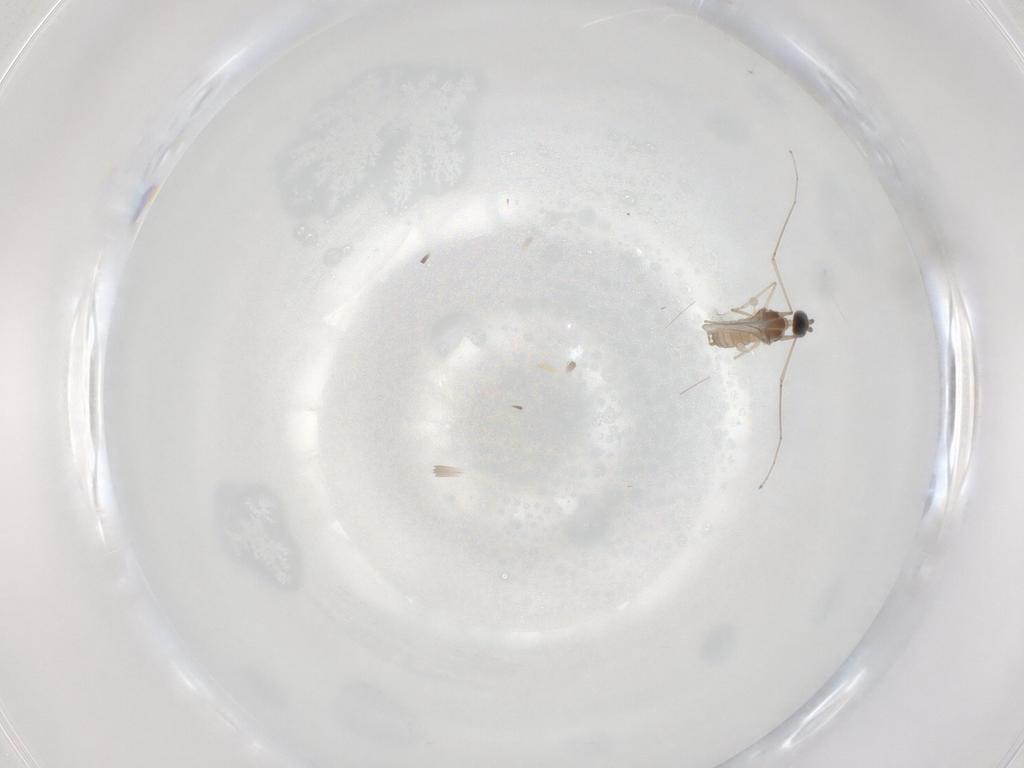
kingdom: Animalia
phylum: Arthropoda
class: Insecta
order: Diptera
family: Cecidomyiidae
